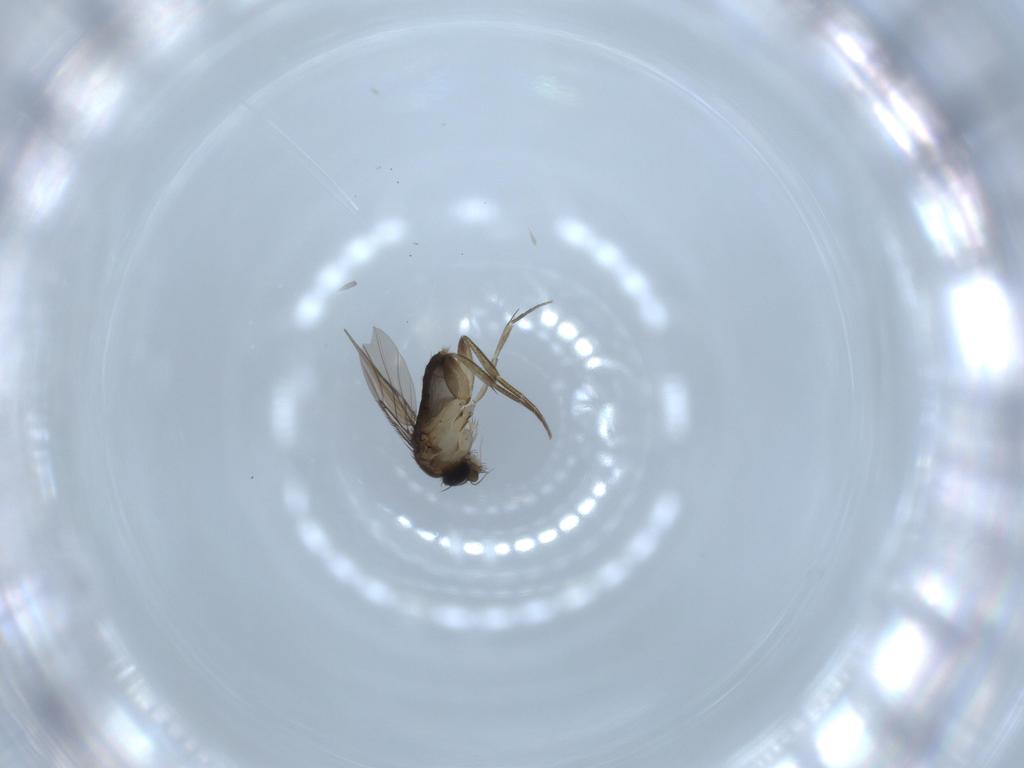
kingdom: Animalia
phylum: Arthropoda
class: Insecta
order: Diptera
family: Phoridae
